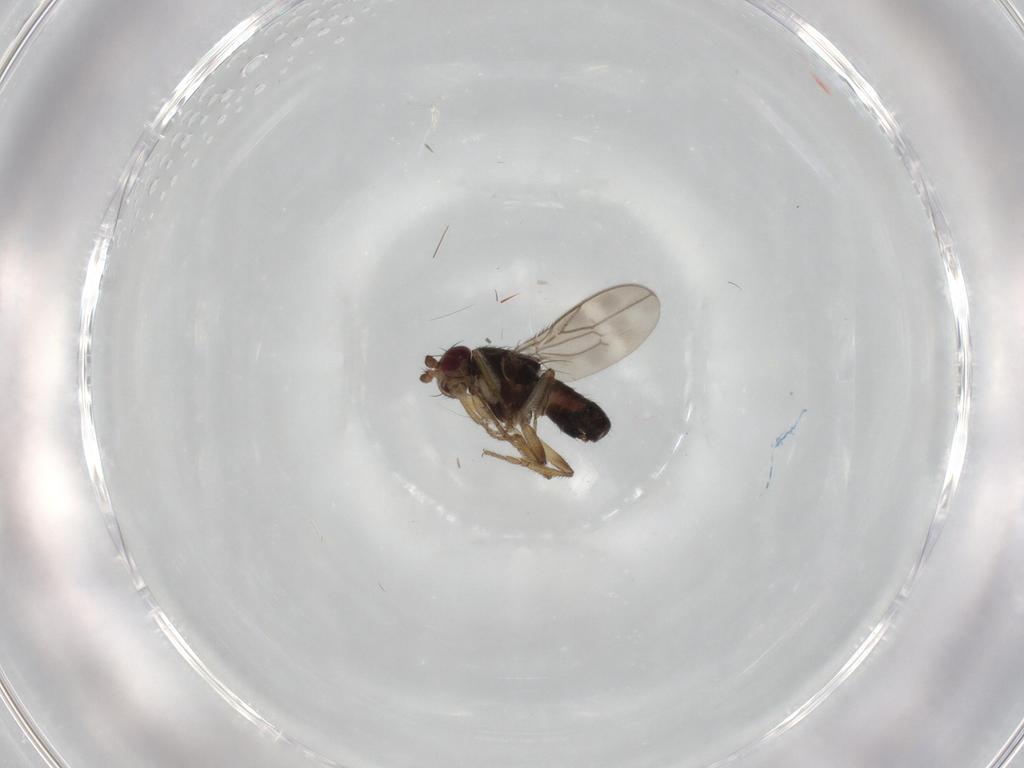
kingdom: Animalia
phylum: Arthropoda
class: Insecta
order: Diptera
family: Sphaeroceridae
